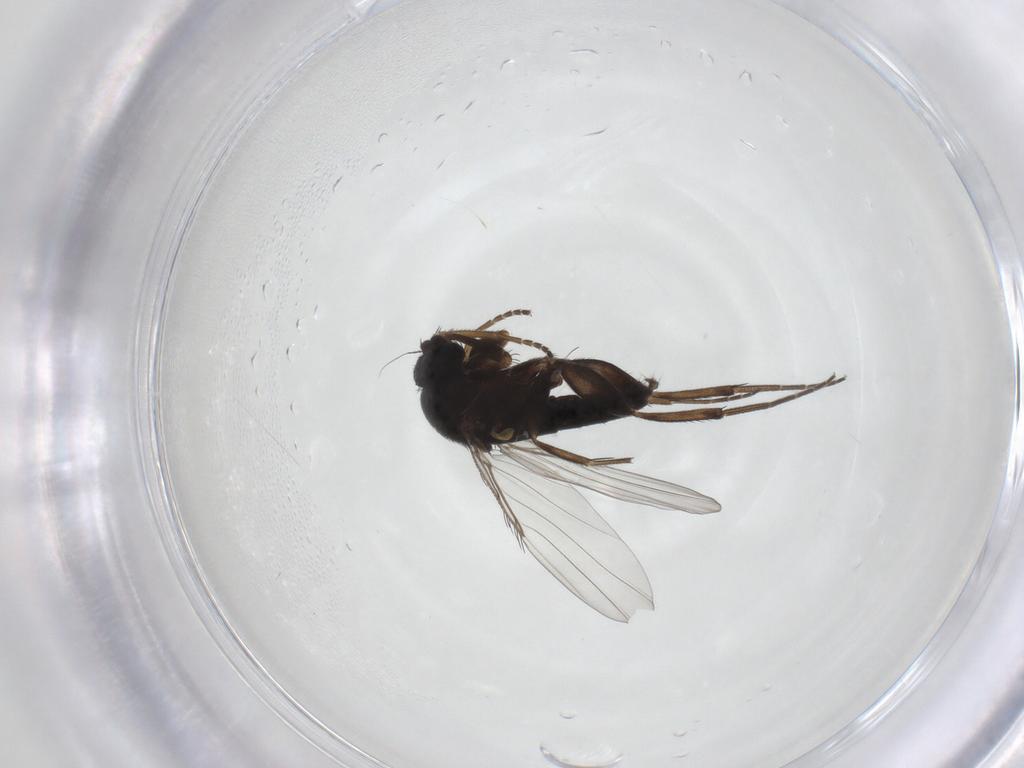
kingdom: Animalia
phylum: Arthropoda
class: Insecta
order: Diptera
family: Phoridae
